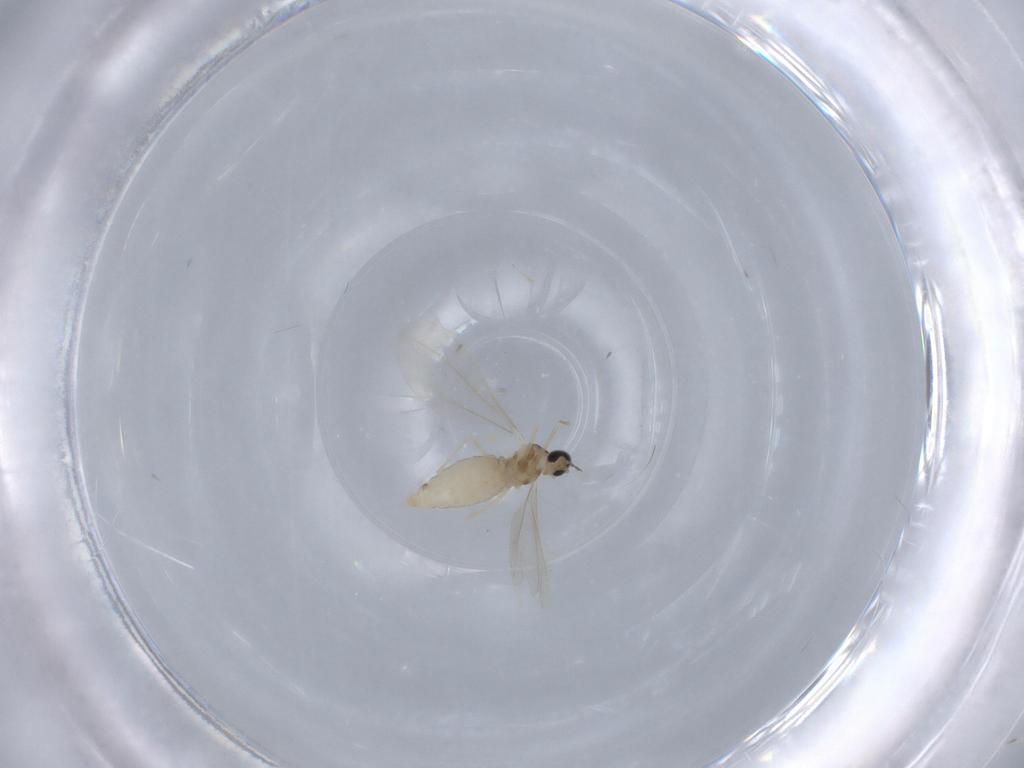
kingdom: Animalia
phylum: Arthropoda
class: Insecta
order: Diptera
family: Cecidomyiidae
